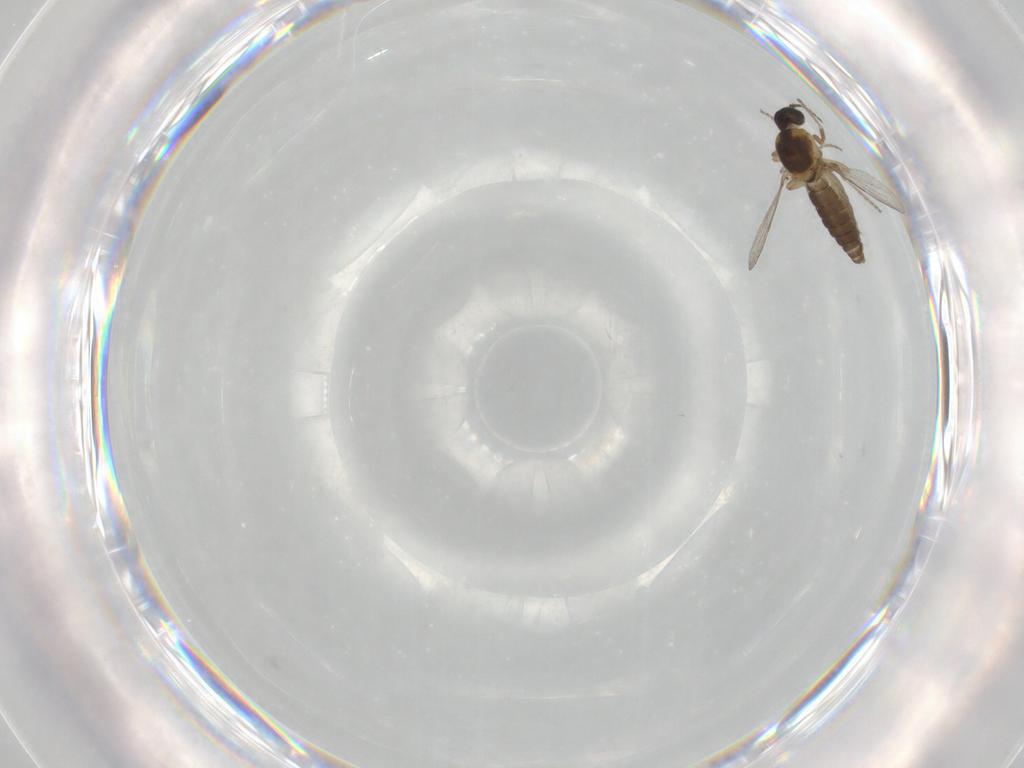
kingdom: Animalia
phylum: Arthropoda
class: Insecta
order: Diptera
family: Ceratopogonidae
